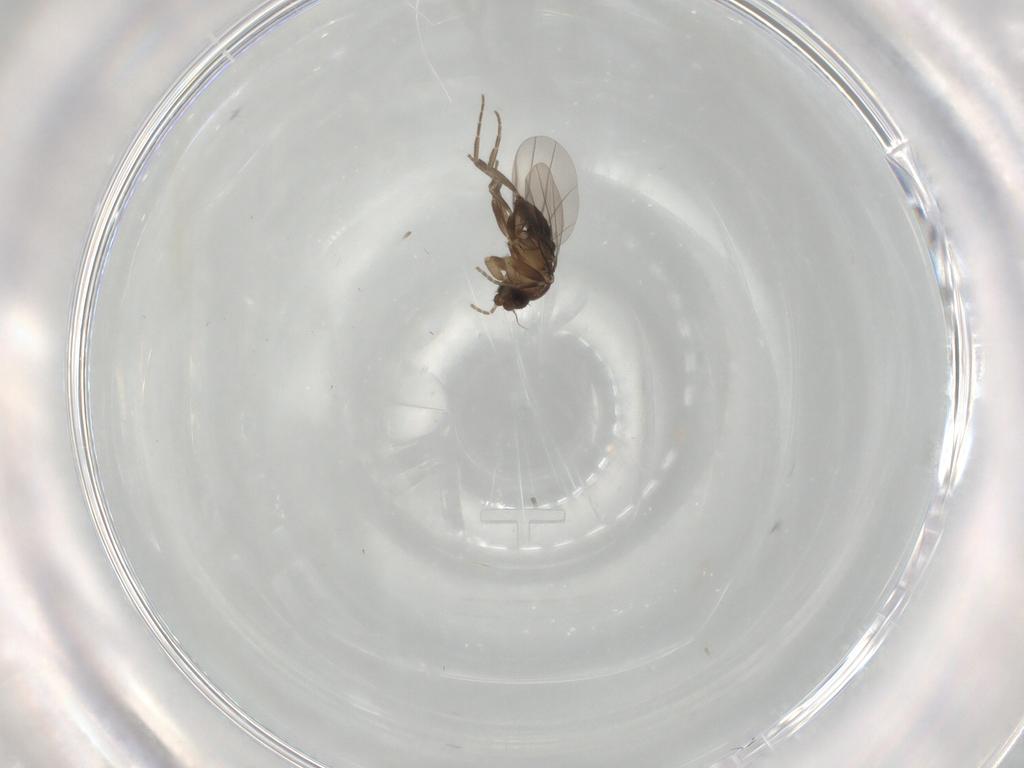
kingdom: Animalia
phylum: Arthropoda
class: Insecta
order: Diptera
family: Phoridae
